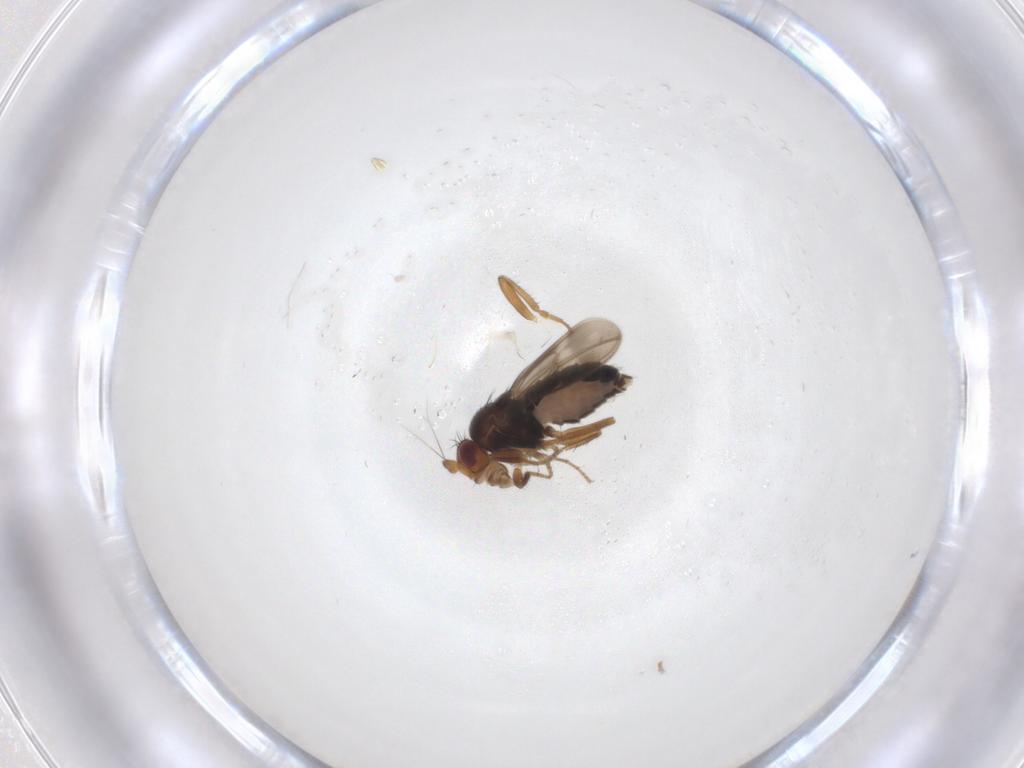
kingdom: Animalia
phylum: Arthropoda
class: Insecta
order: Diptera
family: Sphaeroceridae
